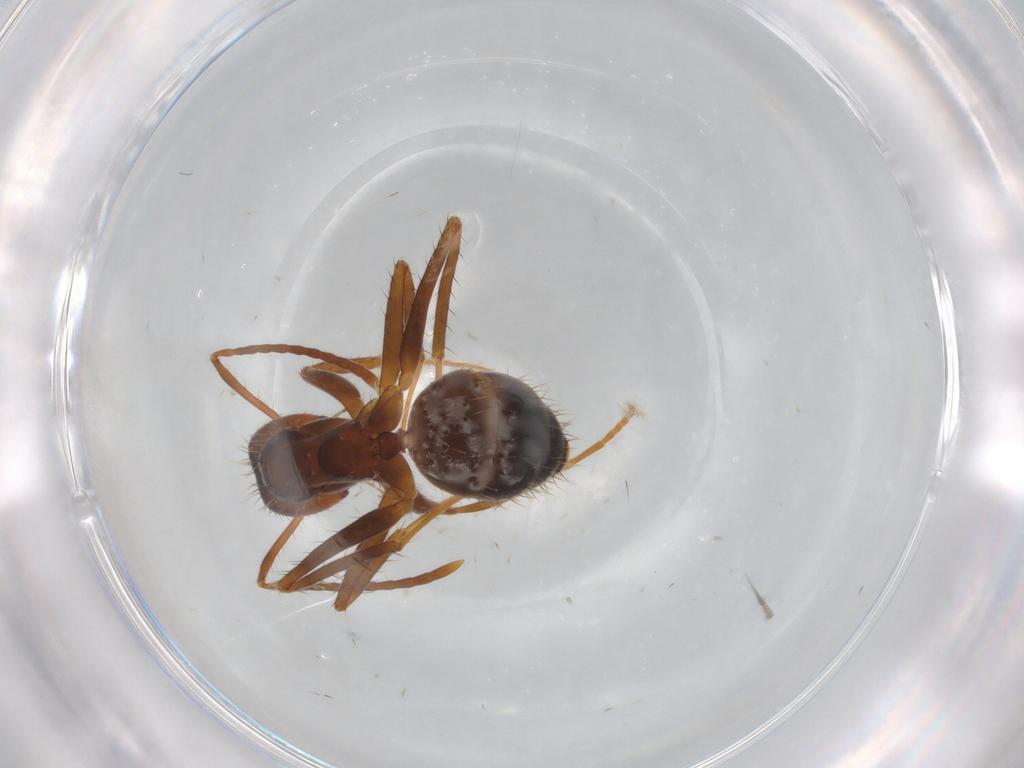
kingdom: Animalia
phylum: Arthropoda
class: Insecta
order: Hymenoptera
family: Formicidae
